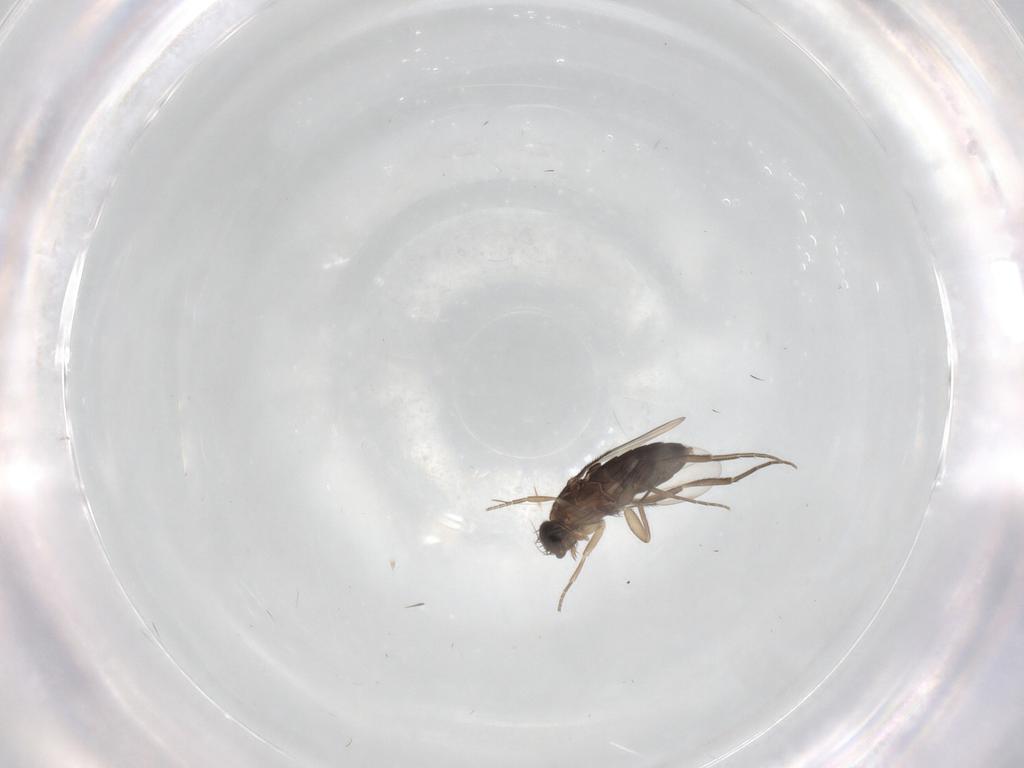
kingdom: Animalia
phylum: Arthropoda
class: Insecta
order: Diptera
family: Phoridae
